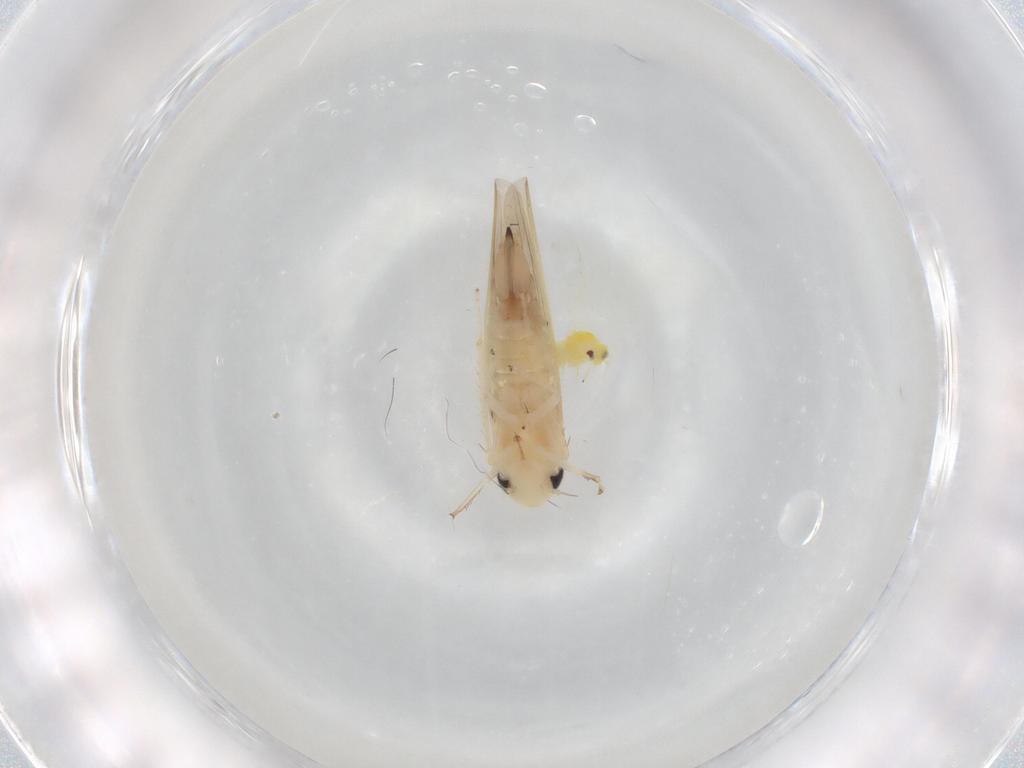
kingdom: Animalia
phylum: Arthropoda
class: Insecta
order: Hemiptera
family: Cicadellidae
